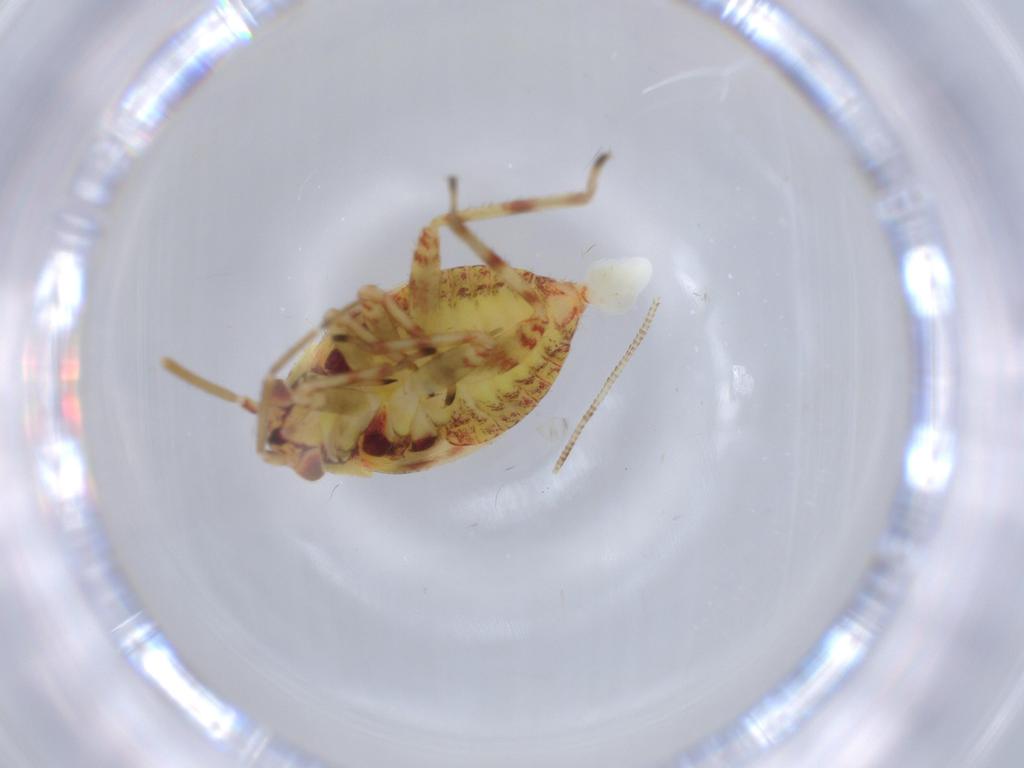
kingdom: Animalia
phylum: Arthropoda
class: Insecta
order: Hemiptera
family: Miridae
